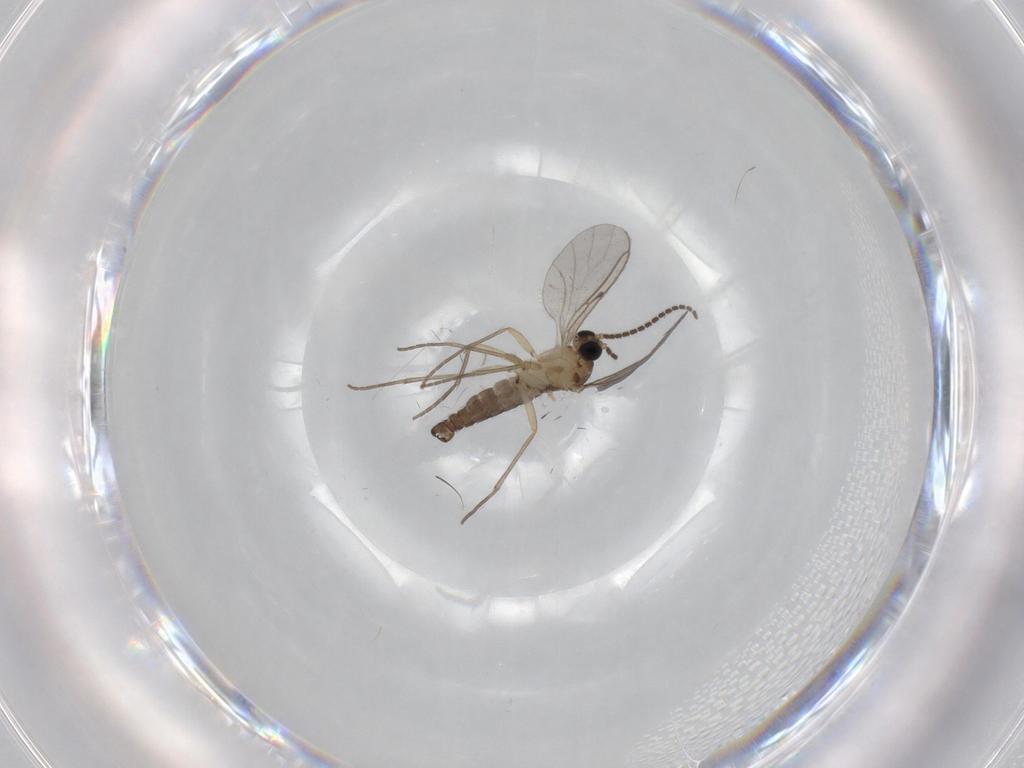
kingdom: Animalia
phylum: Arthropoda
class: Insecta
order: Diptera
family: Sciaridae
